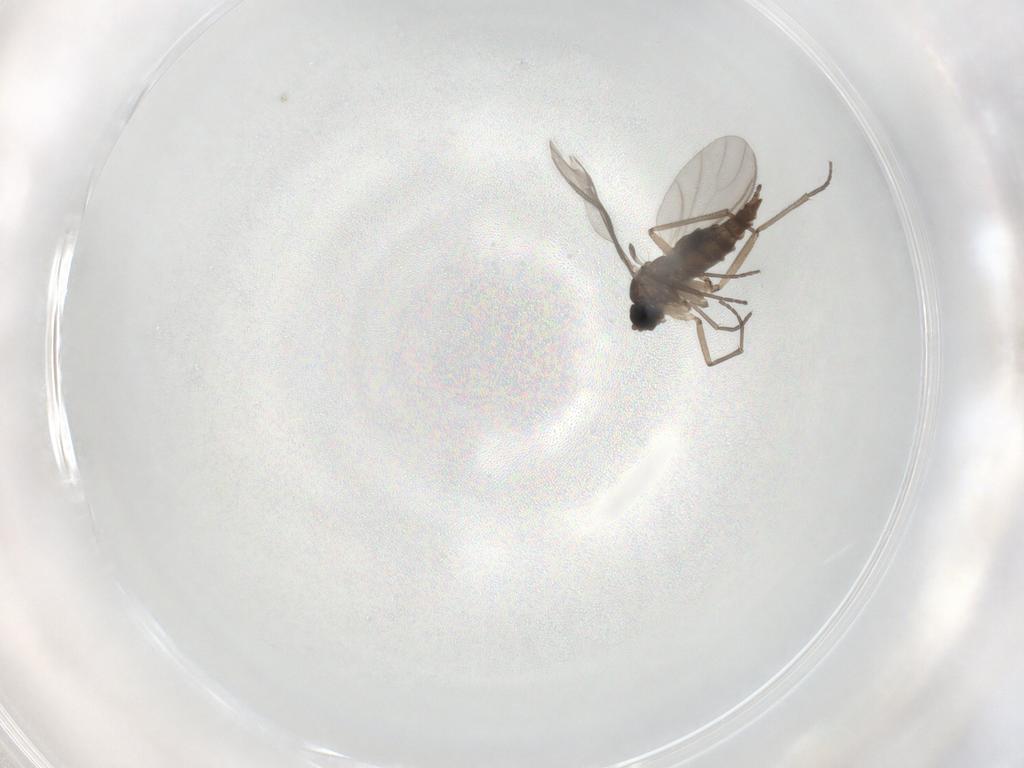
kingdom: Animalia
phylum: Arthropoda
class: Insecta
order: Diptera
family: Sciaridae
